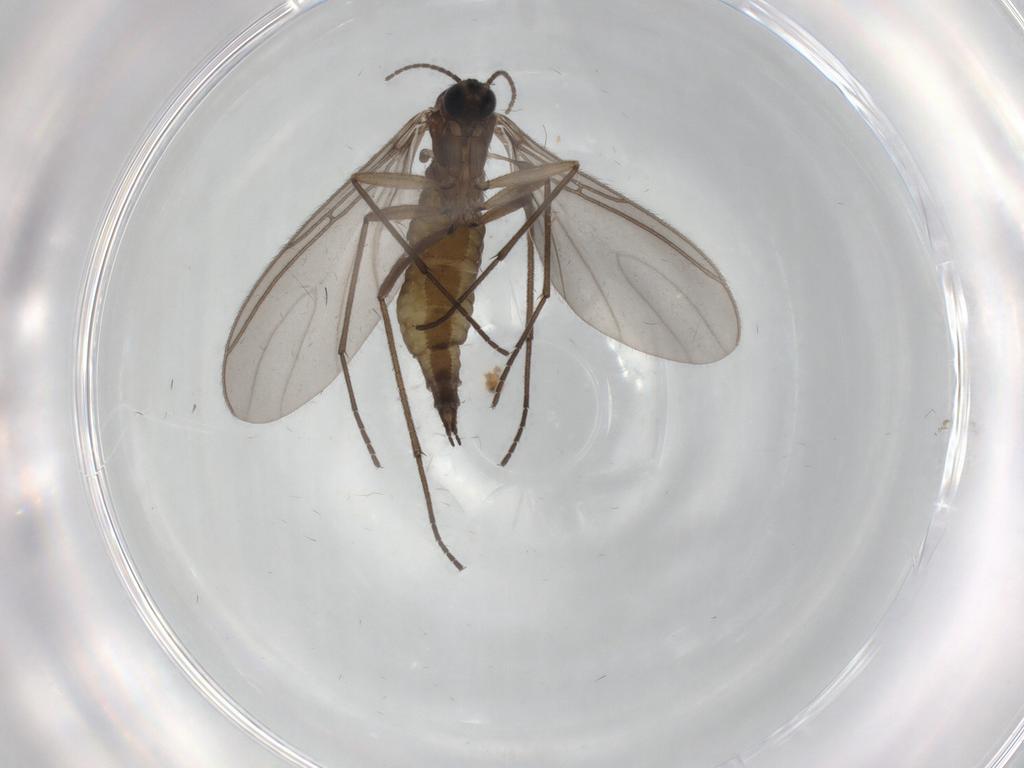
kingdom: Animalia
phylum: Arthropoda
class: Insecta
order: Diptera
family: Sciaridae
